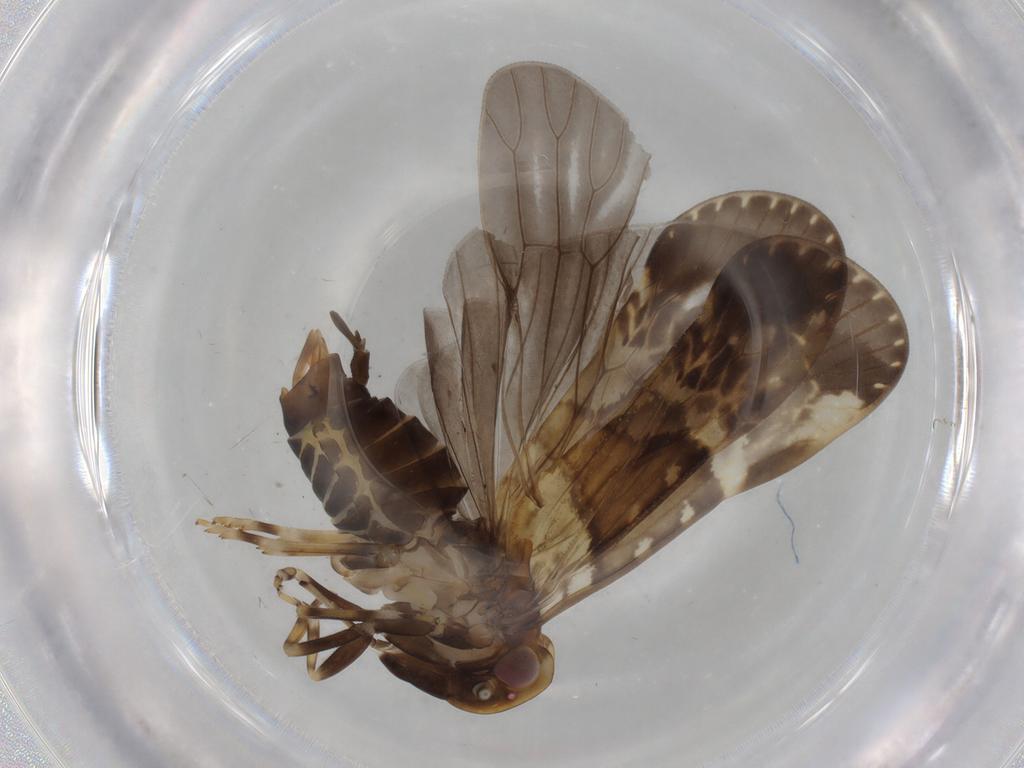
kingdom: Animalia
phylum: Arthropoda
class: Insecta
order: Hemiptera
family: Cixiidae
